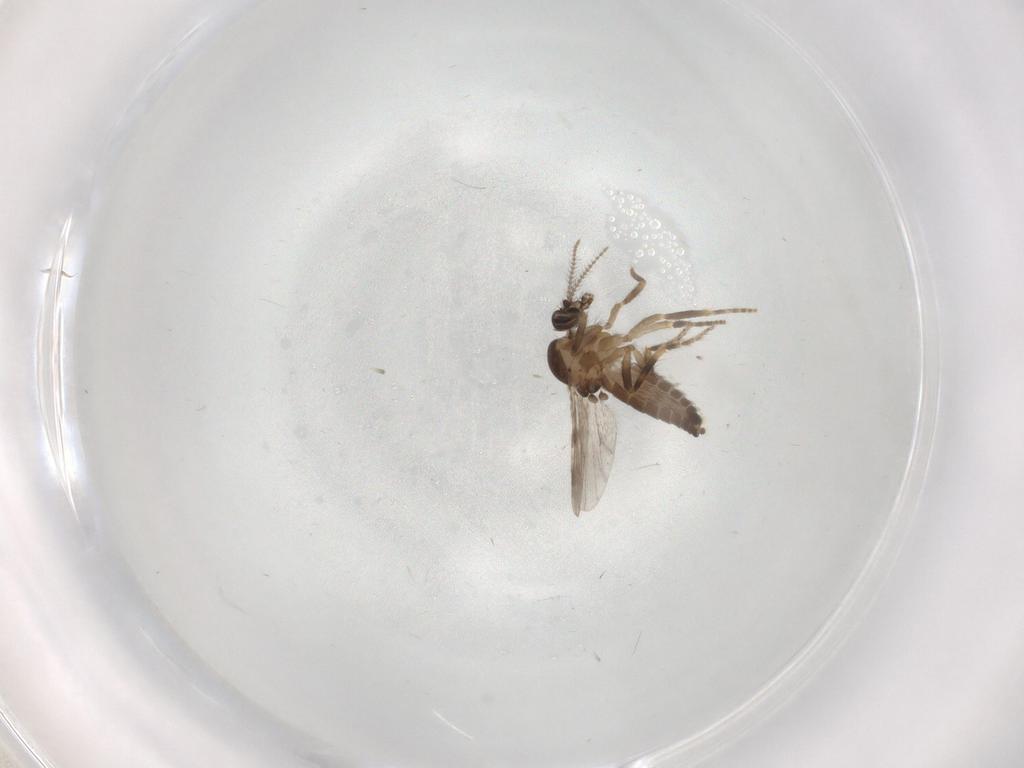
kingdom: Animalia
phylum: Arthropoda
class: Insecta
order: Diptera
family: Ceratopogonidae
